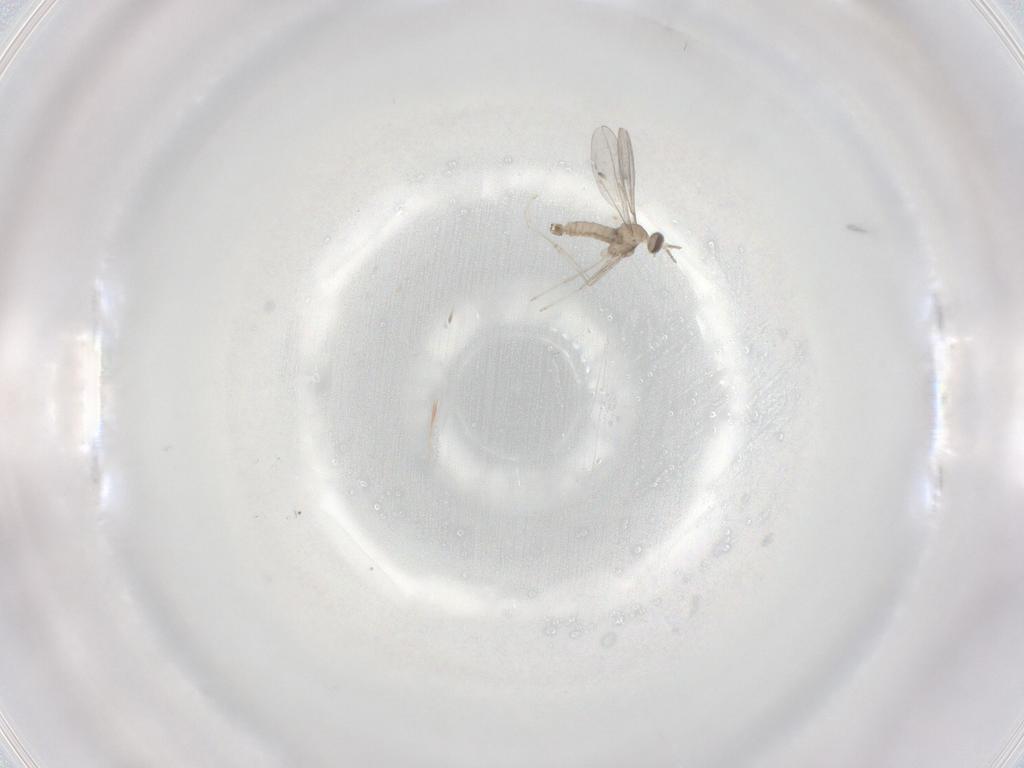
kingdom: Animalia
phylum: Arthropoda
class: Insecta
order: Diptera
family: Cecidomyiidae
